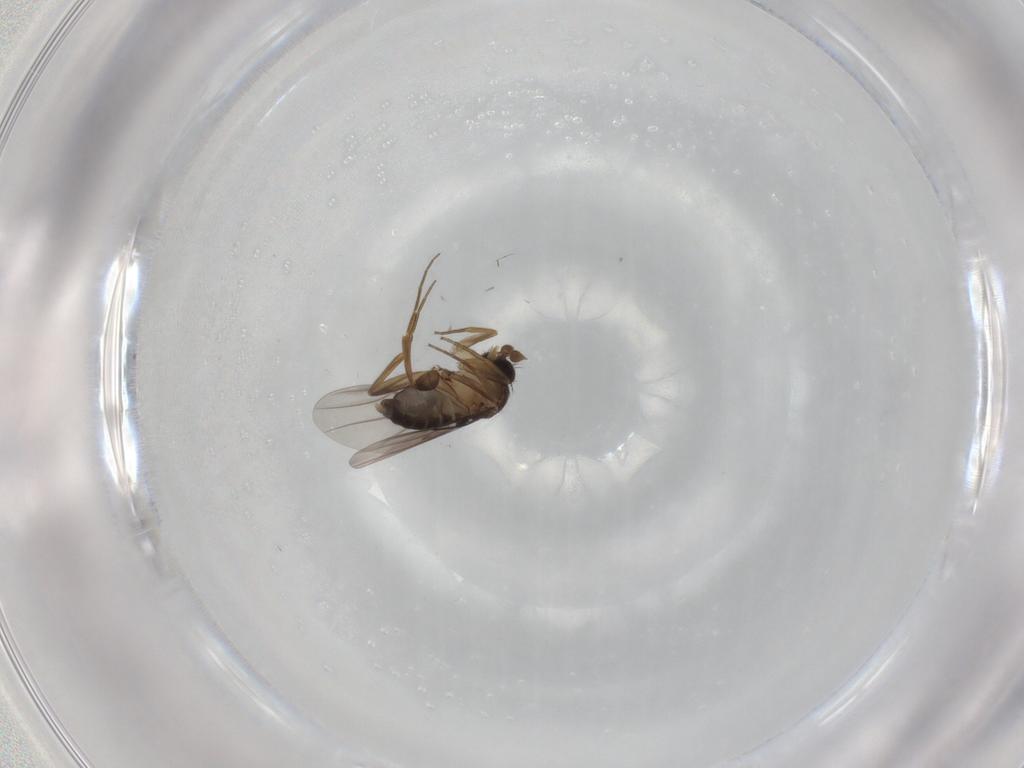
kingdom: Animalia
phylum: Arthropoda
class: Insecta
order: Diptera
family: Cecidomyiidae
